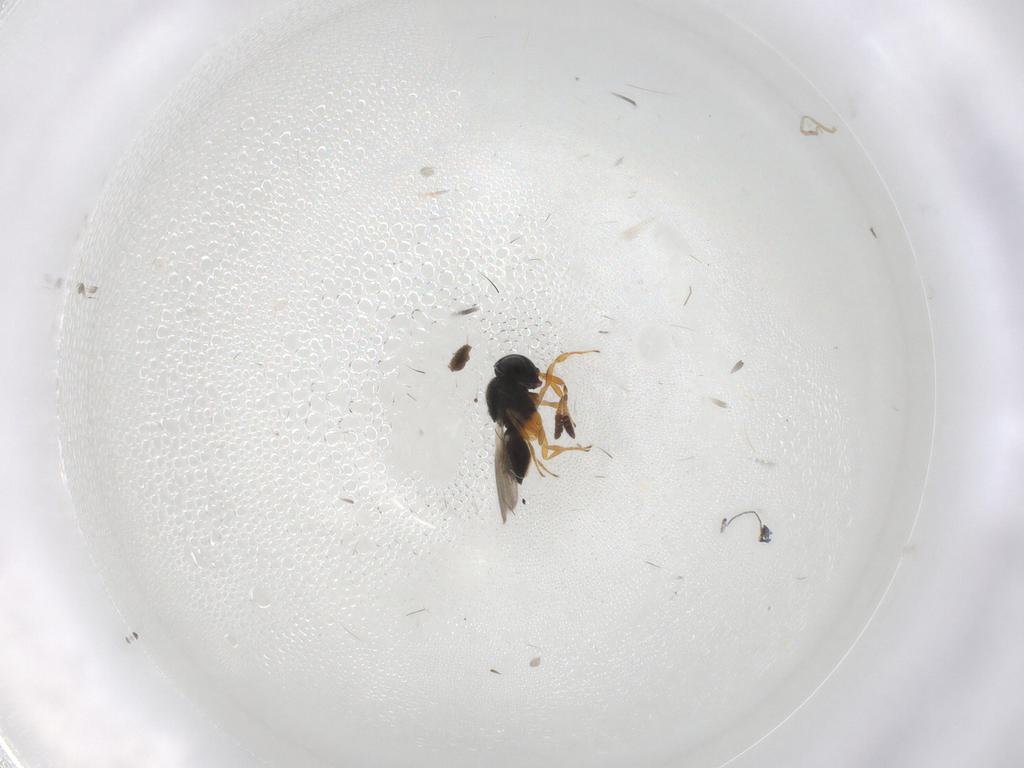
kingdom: Animalia
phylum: Arthropoda
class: Insecta
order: Hymenoptera
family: Scelionidae
